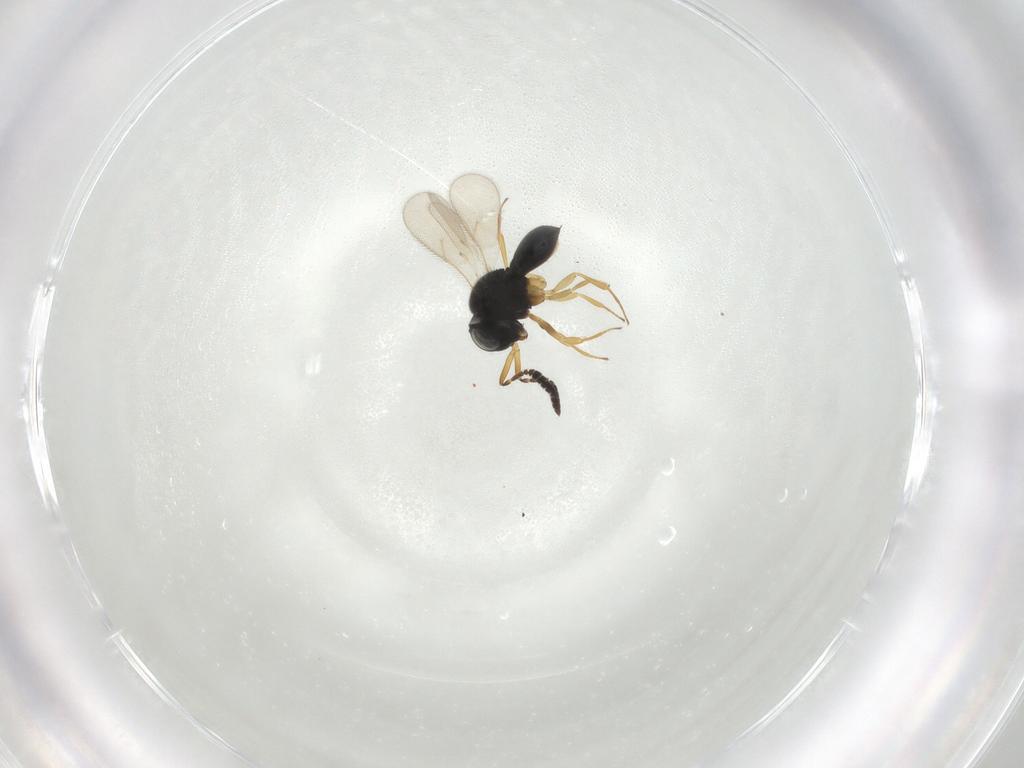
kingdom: Animalia
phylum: Arthropoda
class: Insecta
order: Hymenoptera
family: Scelionidae
